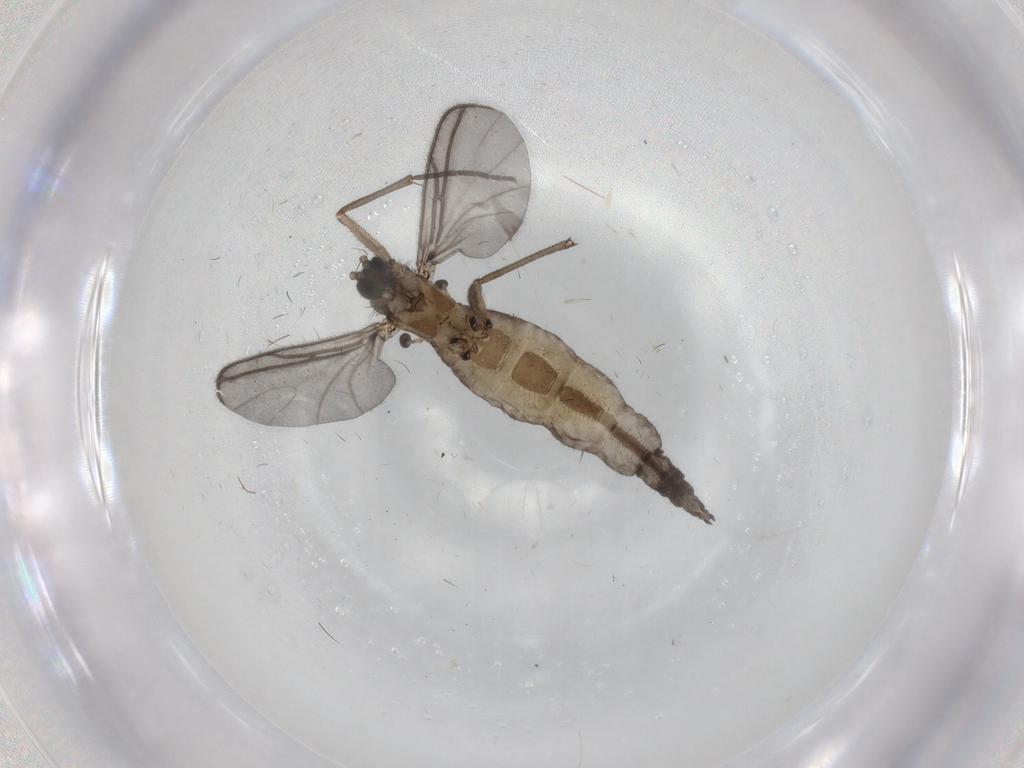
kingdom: Animalia
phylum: Arthropoda
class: Insecta
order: Diptera
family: Sciaridae
